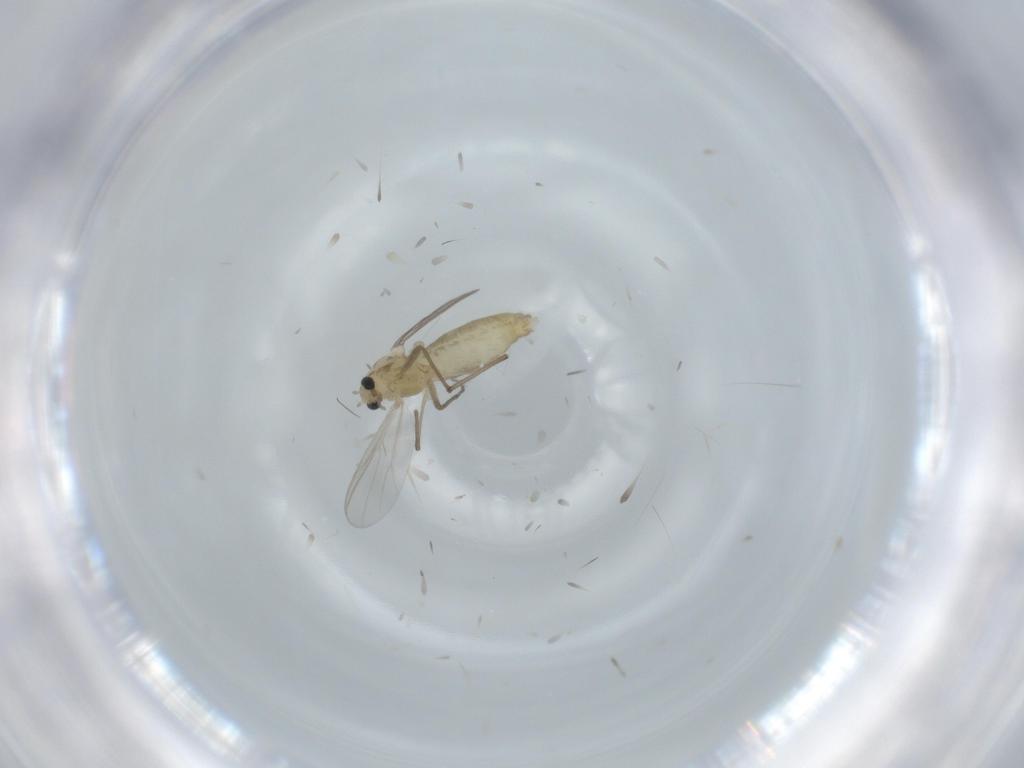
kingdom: Animalia
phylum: Arthropoda
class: Insecta
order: Diptera
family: Chironomidae
